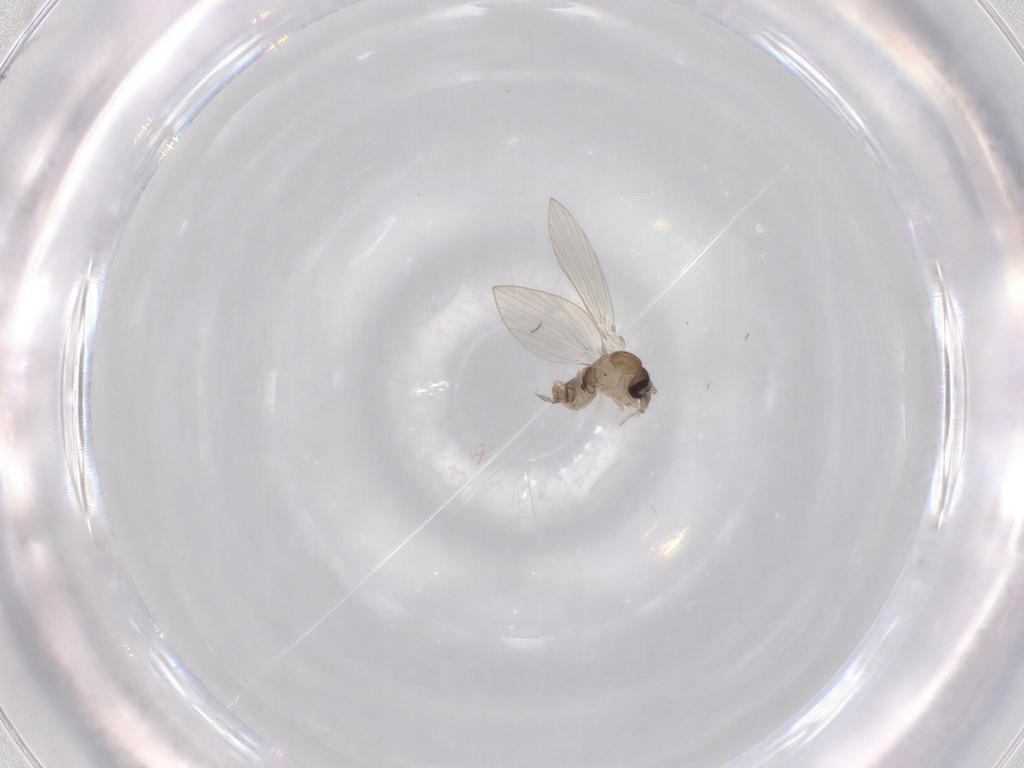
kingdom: Animalia
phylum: Arthropoda
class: Insecta
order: Diptera
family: Psychodidae
